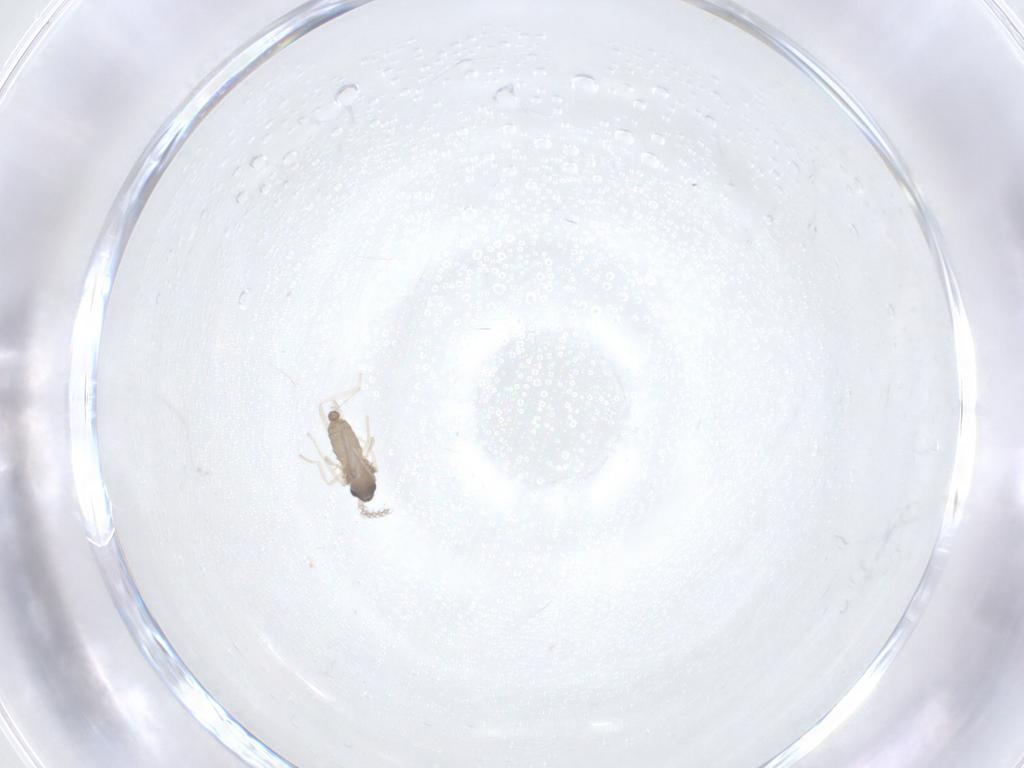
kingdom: Animalia
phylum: Arthropoda
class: Insecta
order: Diptera
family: Cecidomyiidae
